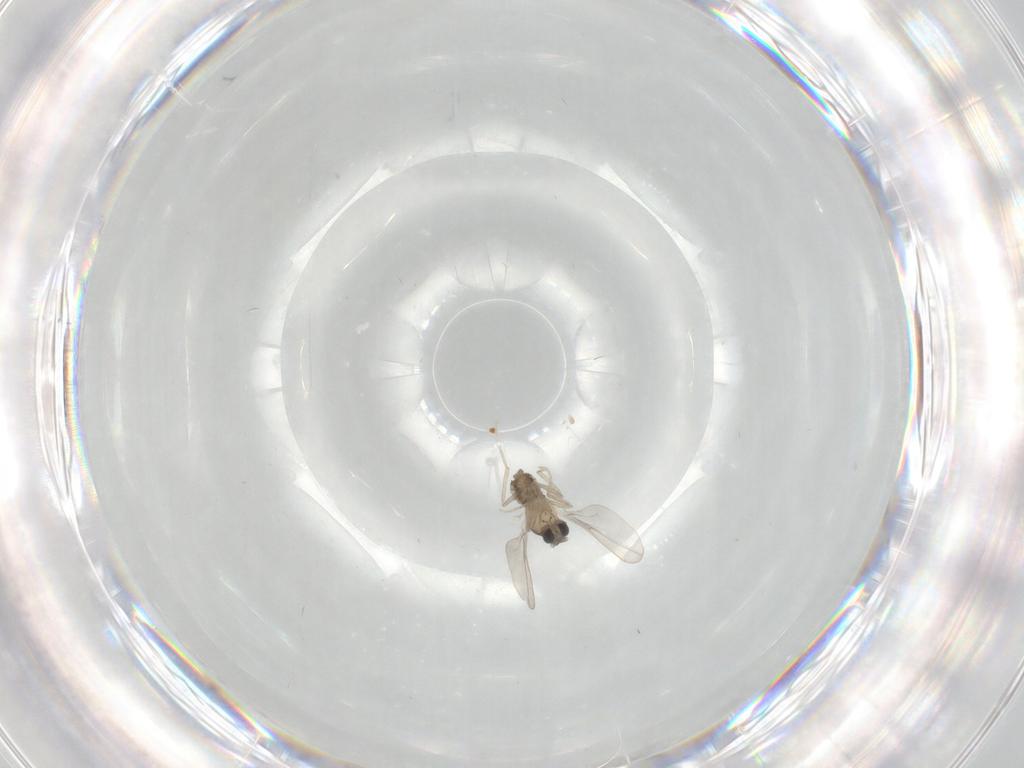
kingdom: Animalia
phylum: Arthropoda
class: Insecta
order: Diptera
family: Cecidomyiidae
